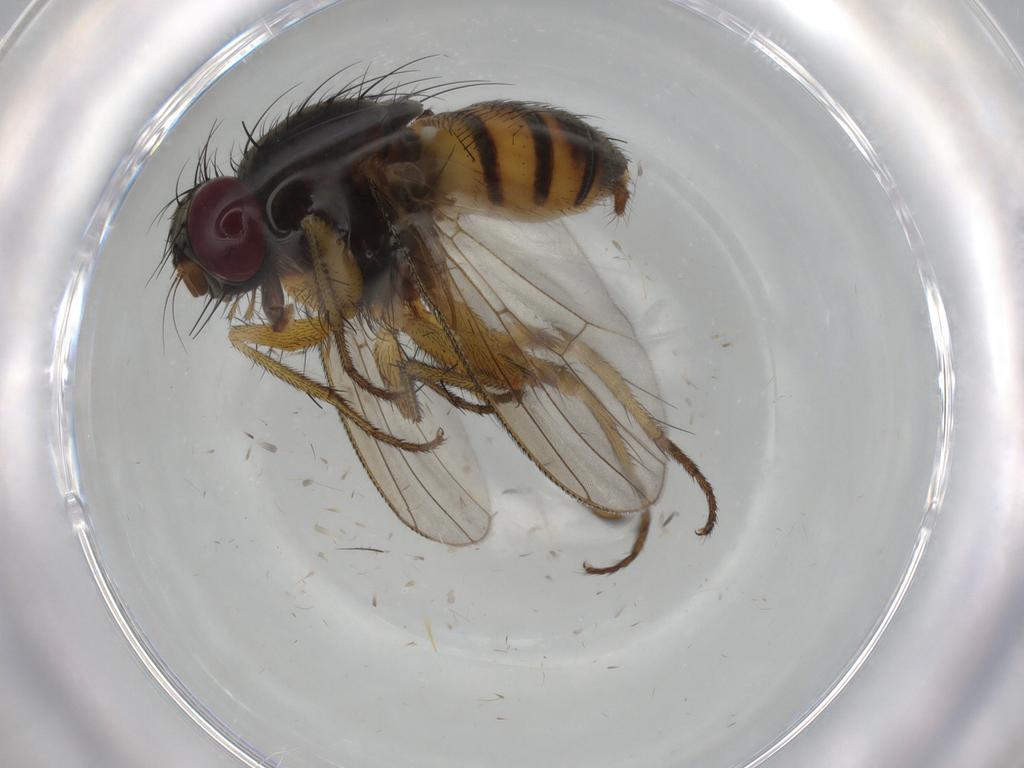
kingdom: Animalia
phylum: Arthropoda
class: Insecta
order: Diptera
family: Muscidae
